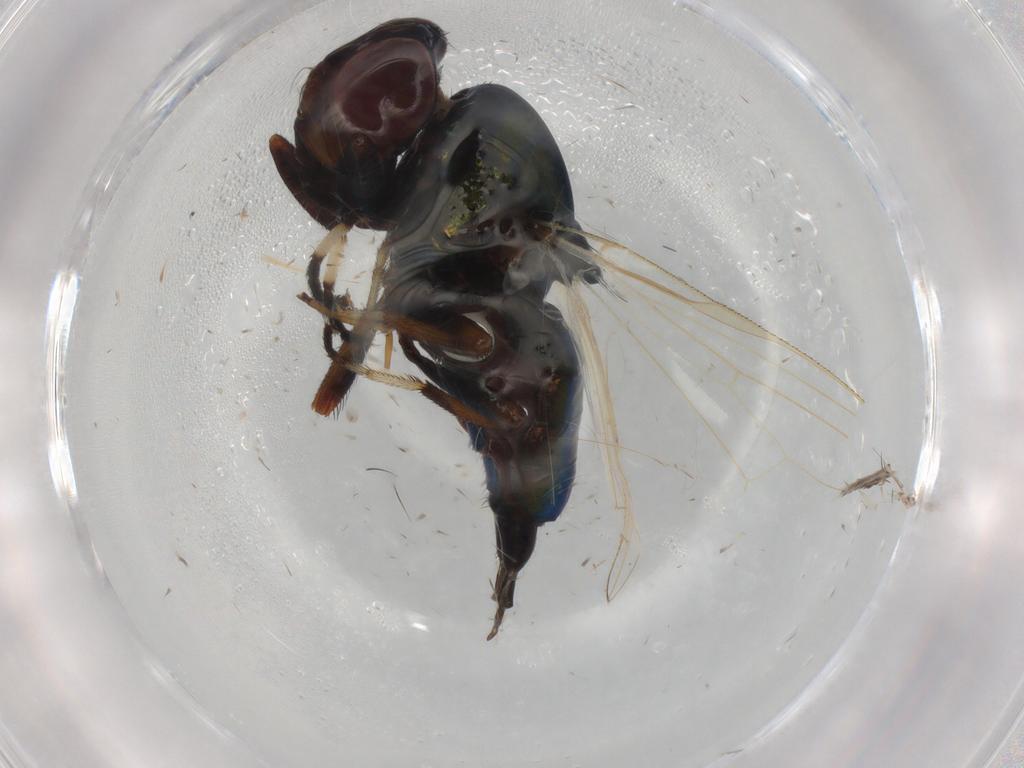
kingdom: Animalia
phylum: Arthropoda
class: Insecta
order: Diptera
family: Ulidiidae
